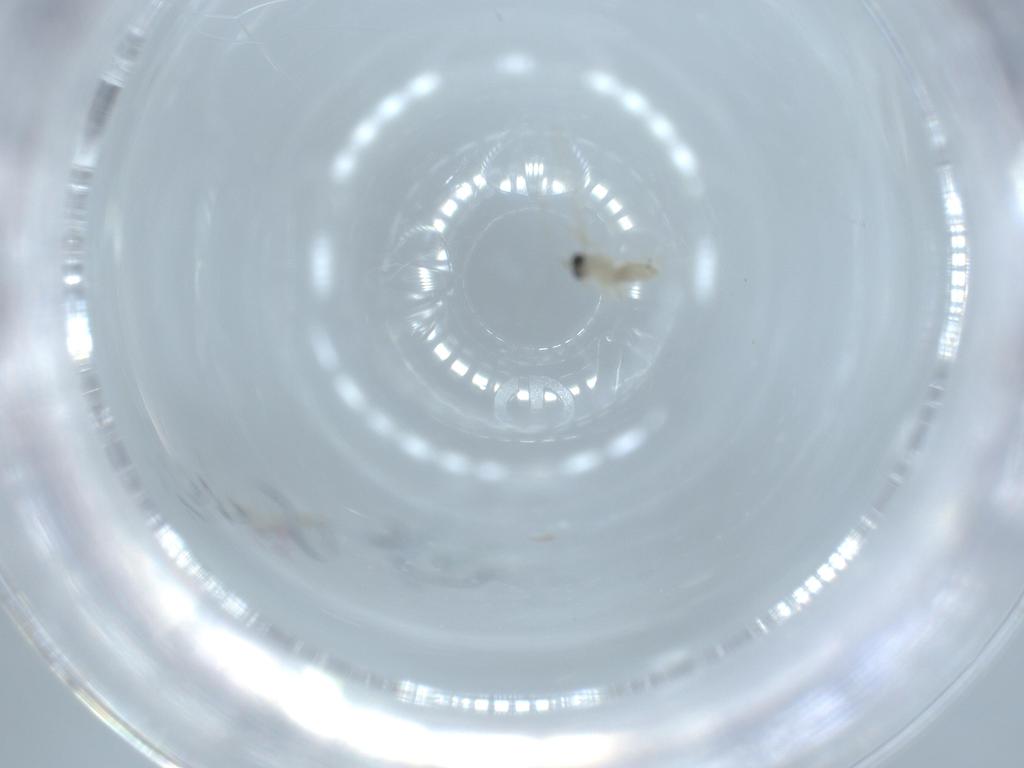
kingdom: Animalia
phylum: Arthropoda
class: Insecta
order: Diptera
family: Cecidomyiidae
